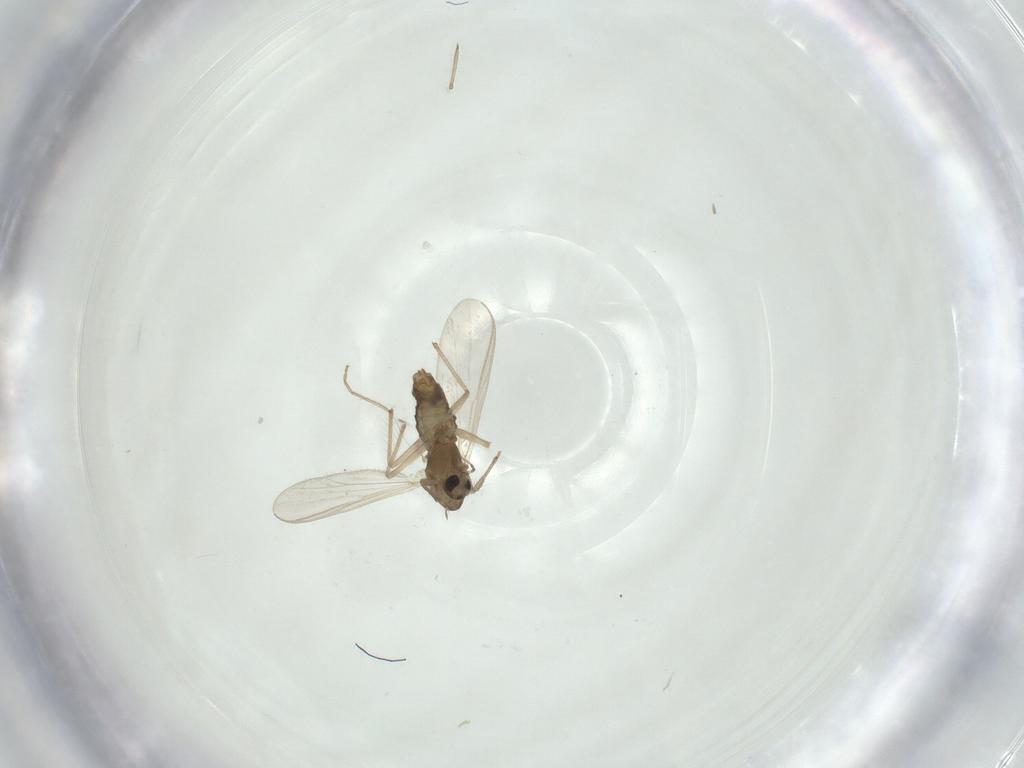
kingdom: Animalia
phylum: Arthropoda
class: Insecta
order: Diptera
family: Chironomidae
